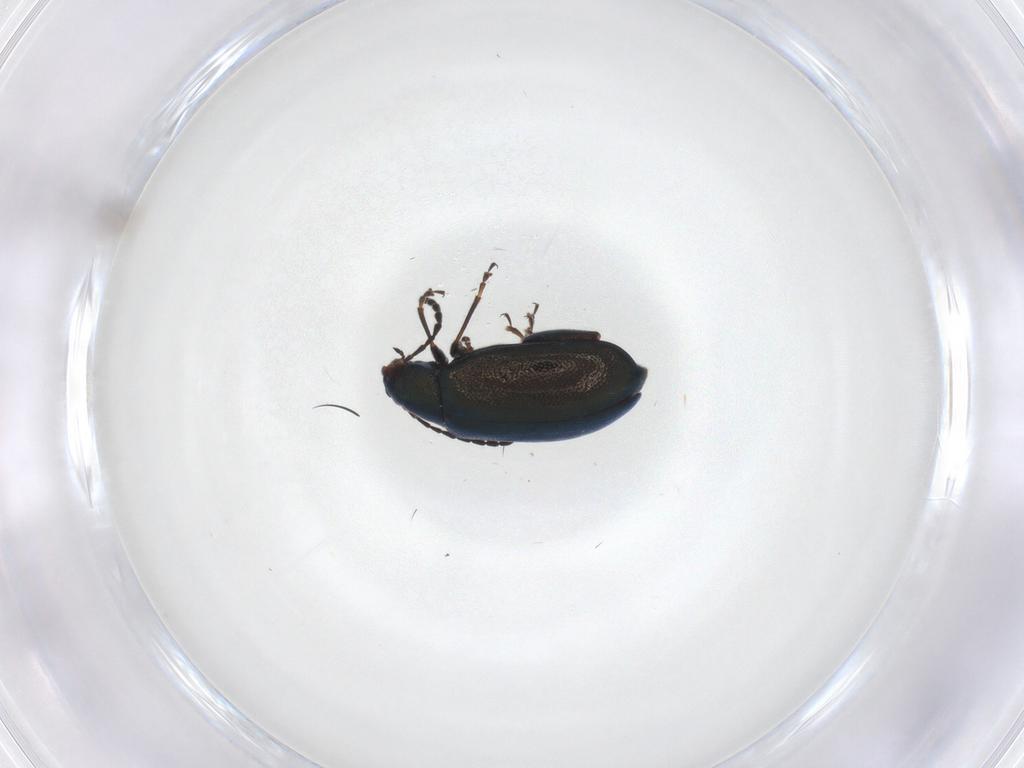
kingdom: Animalia
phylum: Arthropoda
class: Insecta
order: Coleoptera
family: Chrysomelidae
